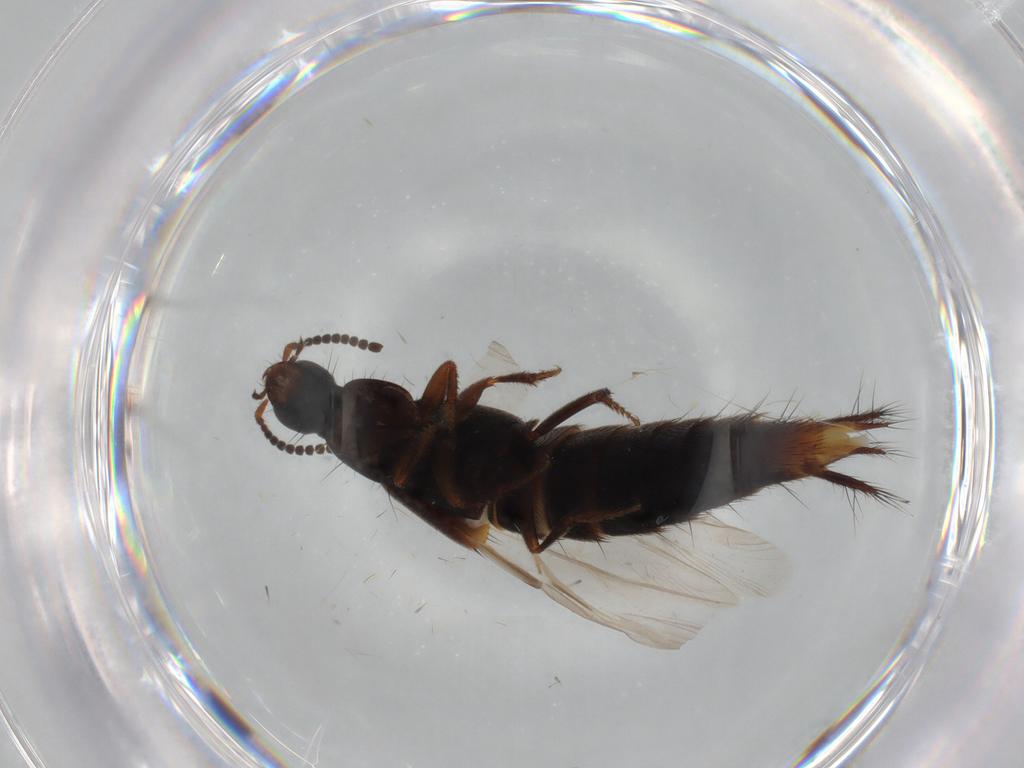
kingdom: Animalia
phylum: Arthropoda
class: Insecta
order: Coleoptera
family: Staphylinidae
